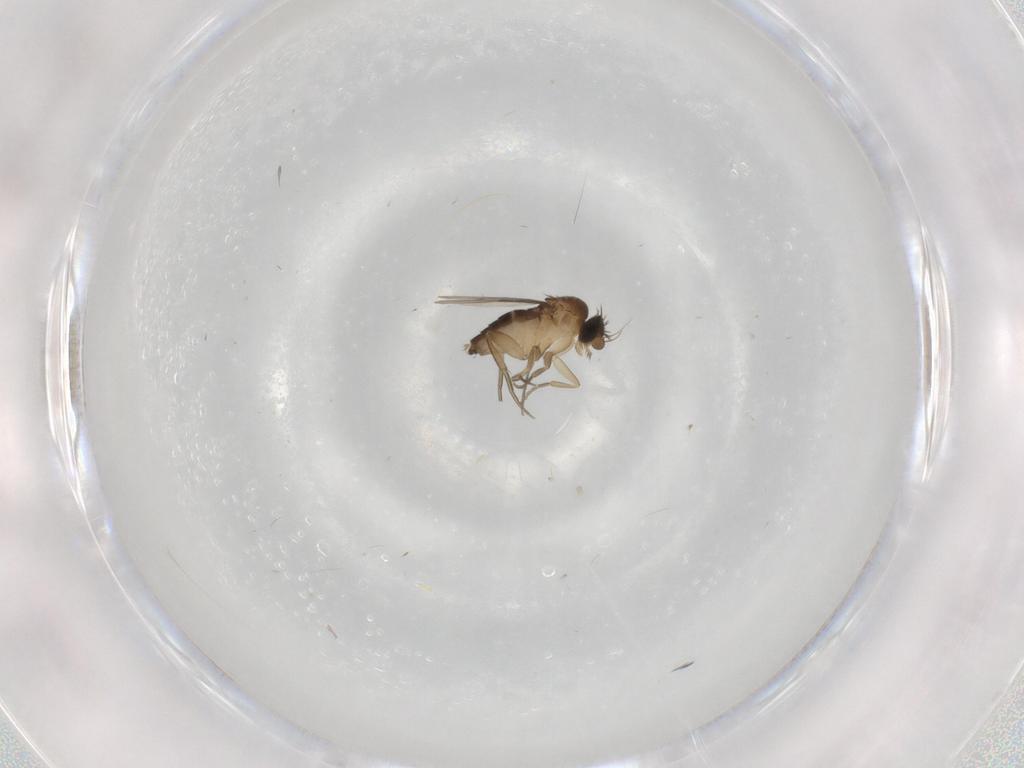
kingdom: Animalia
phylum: Arthropoda
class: Insecta
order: Diptera
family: Phoridae
